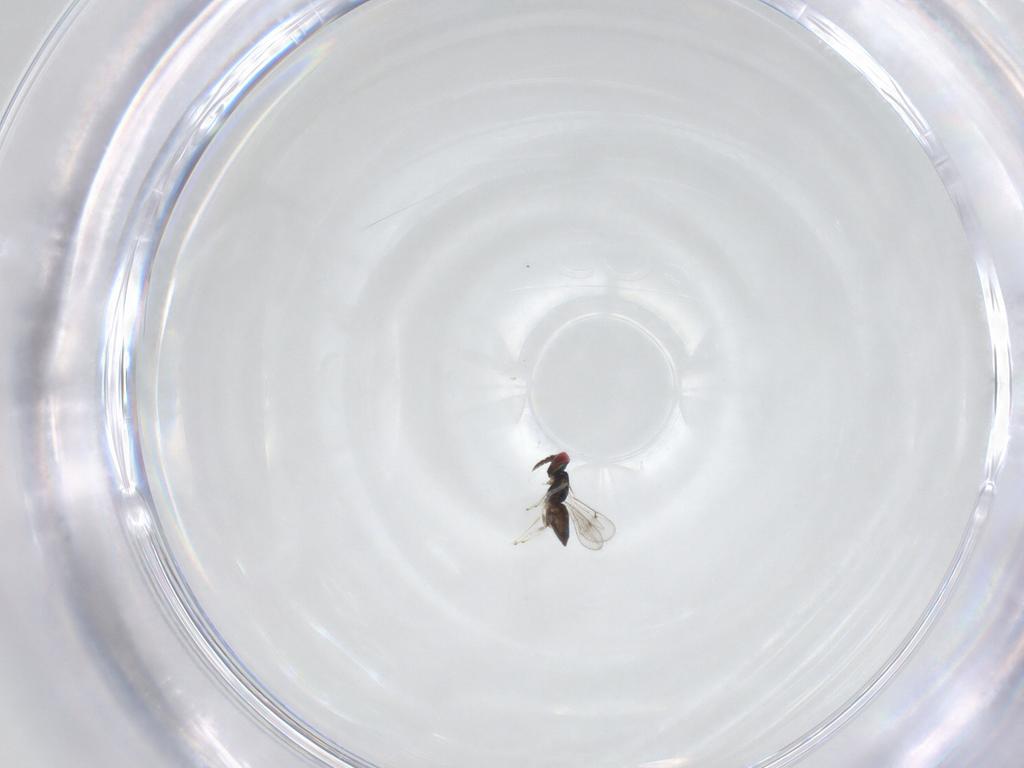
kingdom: Animalia
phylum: Arthropoda
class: Insecta
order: Hymenoptera
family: Eulophidae
